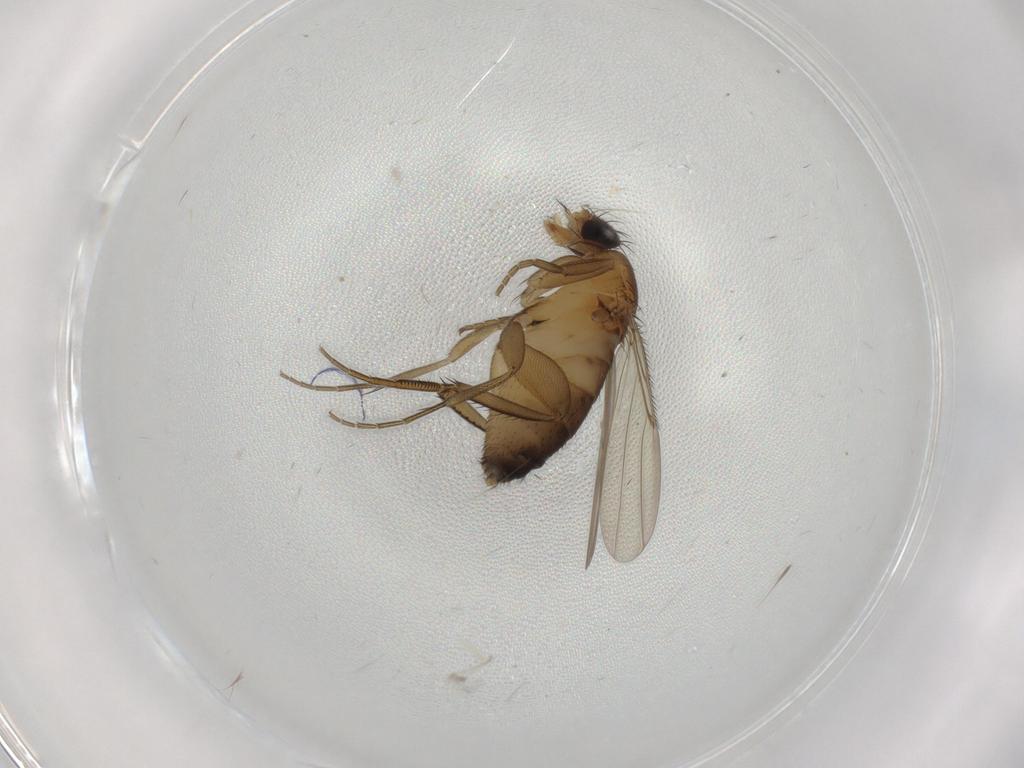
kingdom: Animalia
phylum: Arthropoda
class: Insecta
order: Diptera
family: Phoridae
